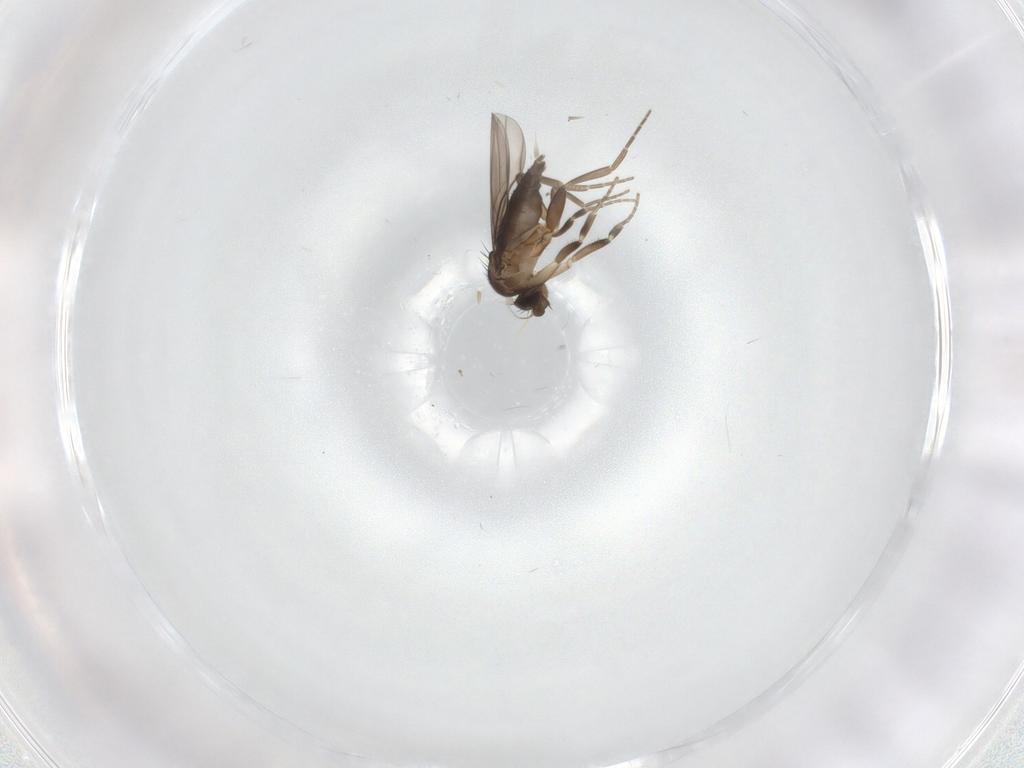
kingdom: Animalia
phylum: Arthropoda
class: Insecta
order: Diptera
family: Phoridae
